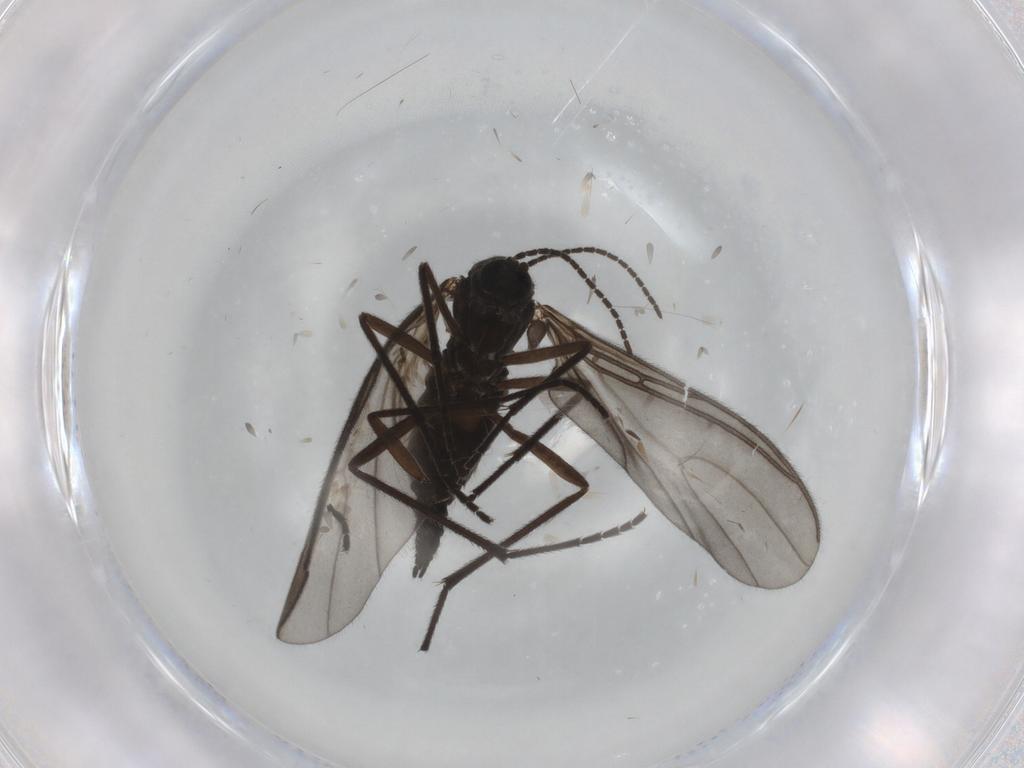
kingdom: Animalia
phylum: Arthropoda
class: Insecta
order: Diptera
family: Sciaridae
